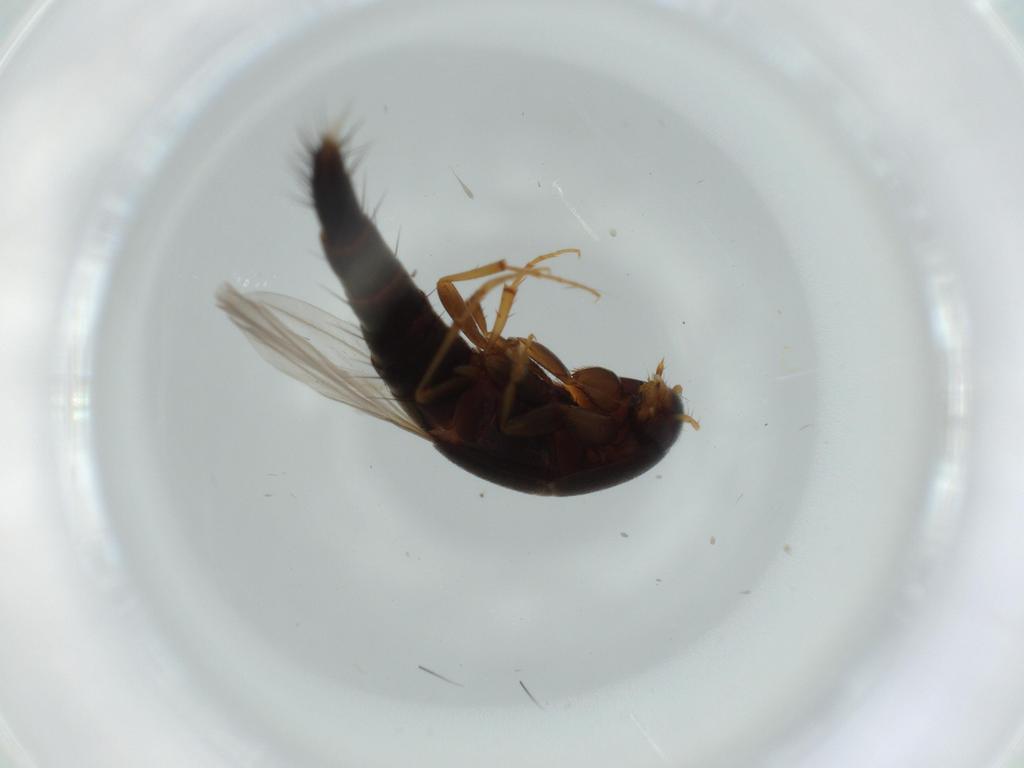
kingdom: Animalia
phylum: Arthropoda
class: Insecta
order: Coleoptera
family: Staphylinidae
